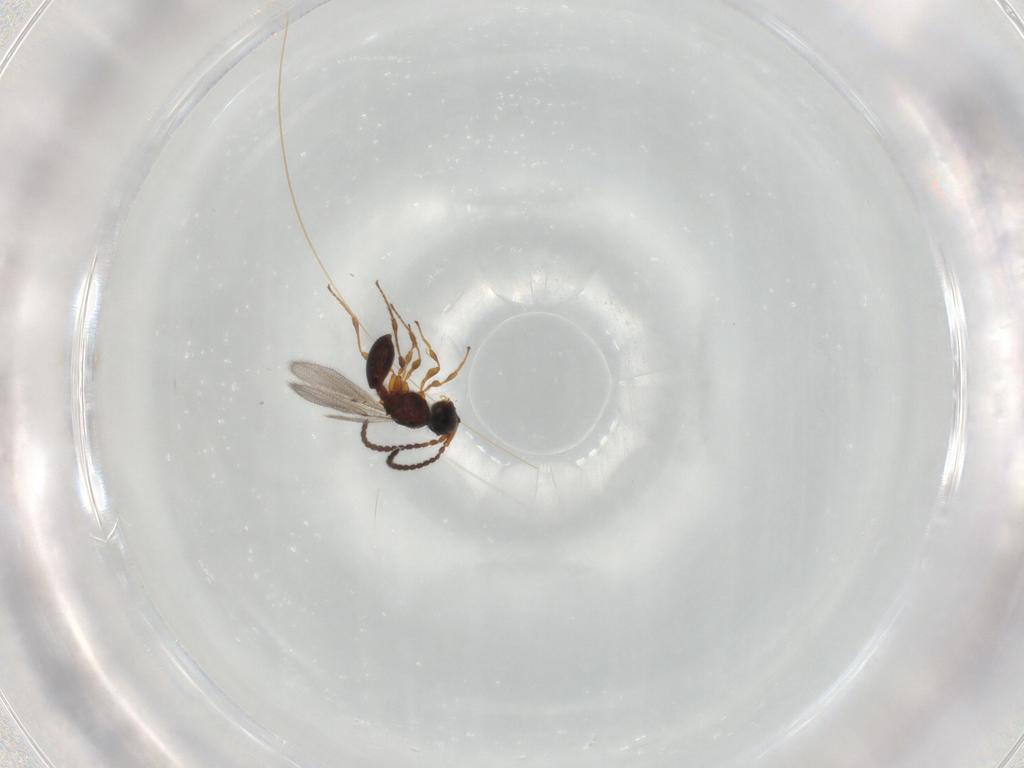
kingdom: Animalia
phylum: Arthropoda
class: Insecta
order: Hymenoptera
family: Diapriidae
